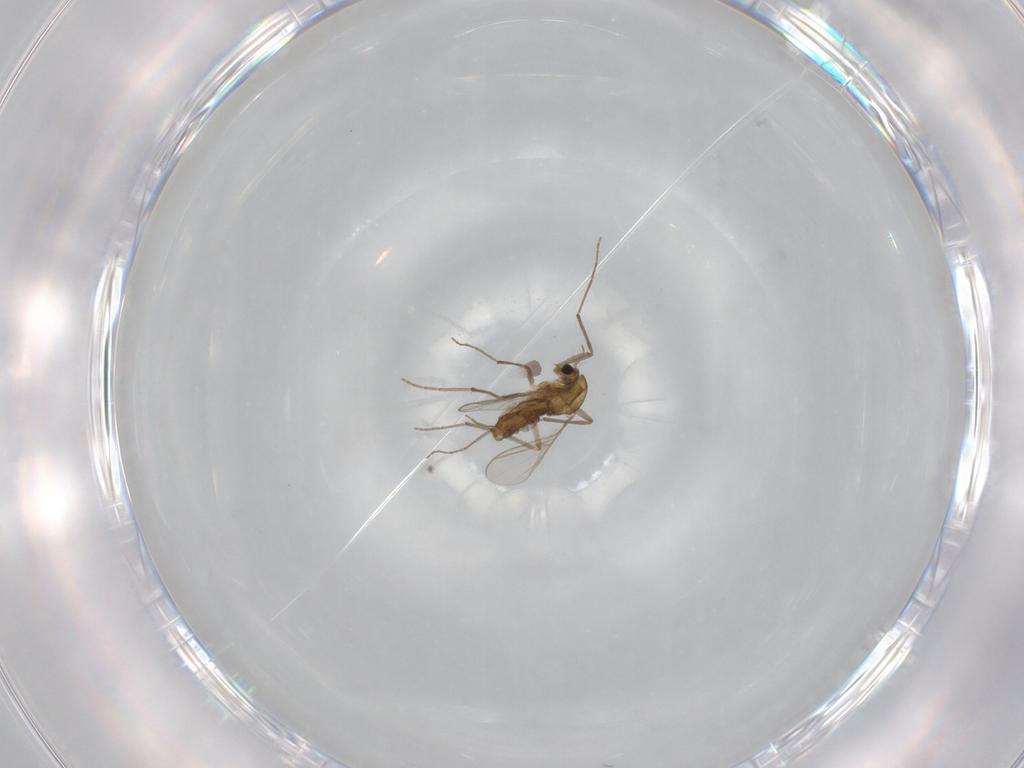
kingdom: Animalia
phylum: Arthropoda
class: Insecta
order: Diptera
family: Chironomidae
